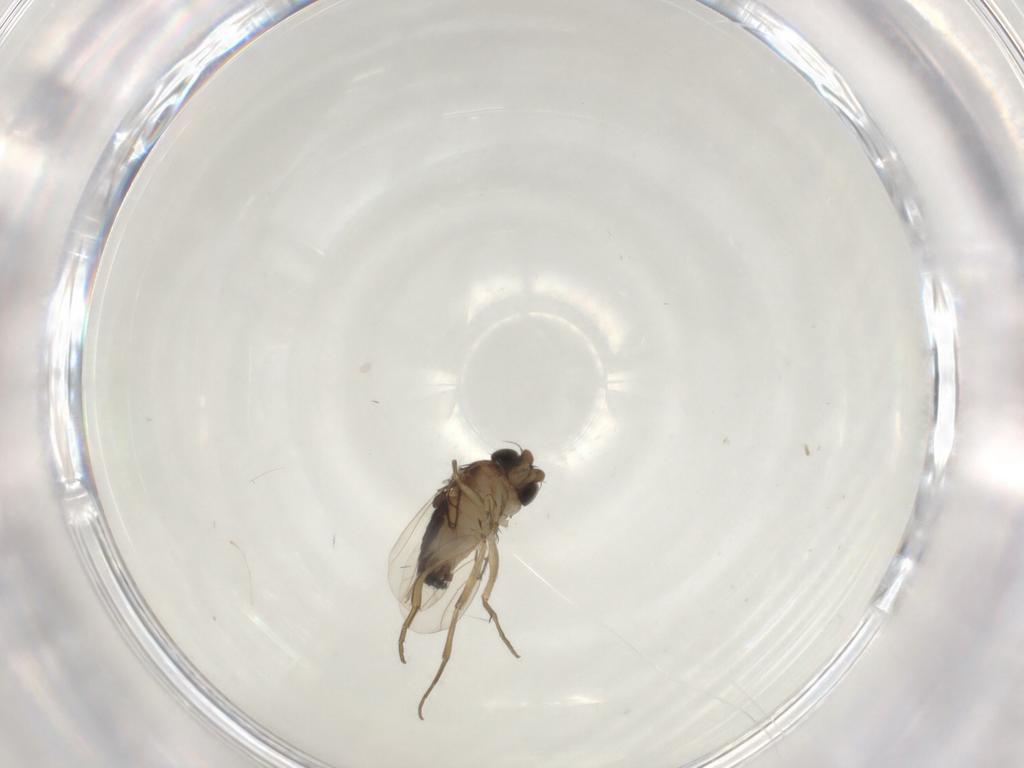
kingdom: Animalia
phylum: Arthropoda
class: Insecta
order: Diptera
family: Phoridae
